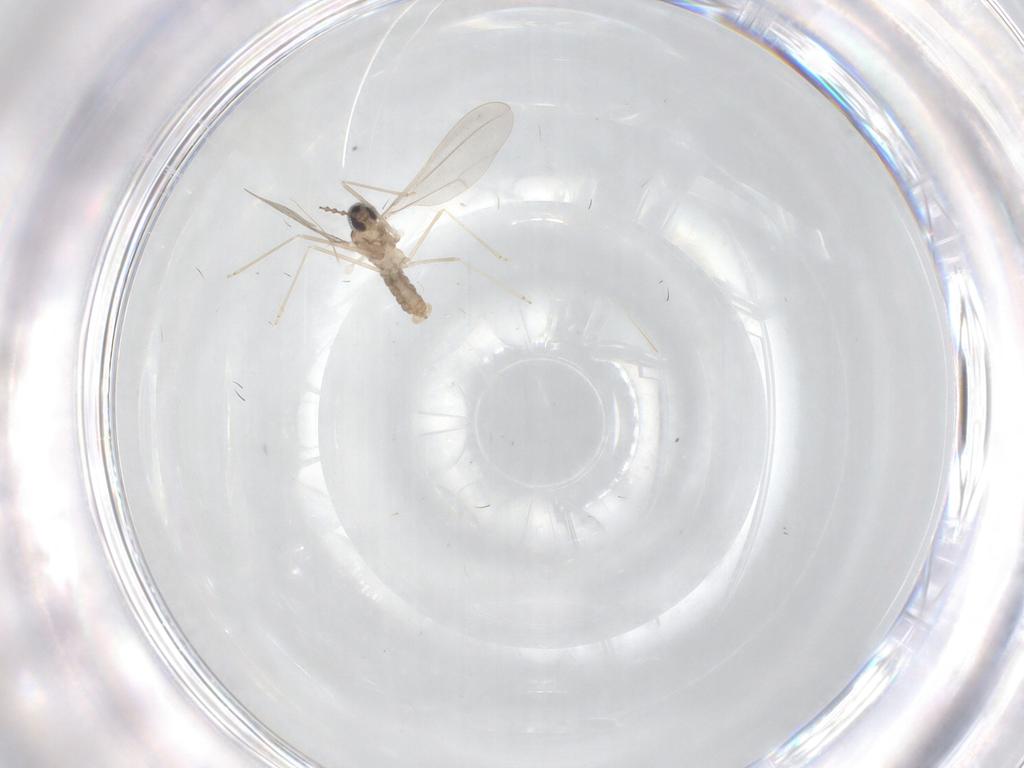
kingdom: Animalia
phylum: Arthropoda
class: Insecta
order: Diptera
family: Cecidomyiidae
